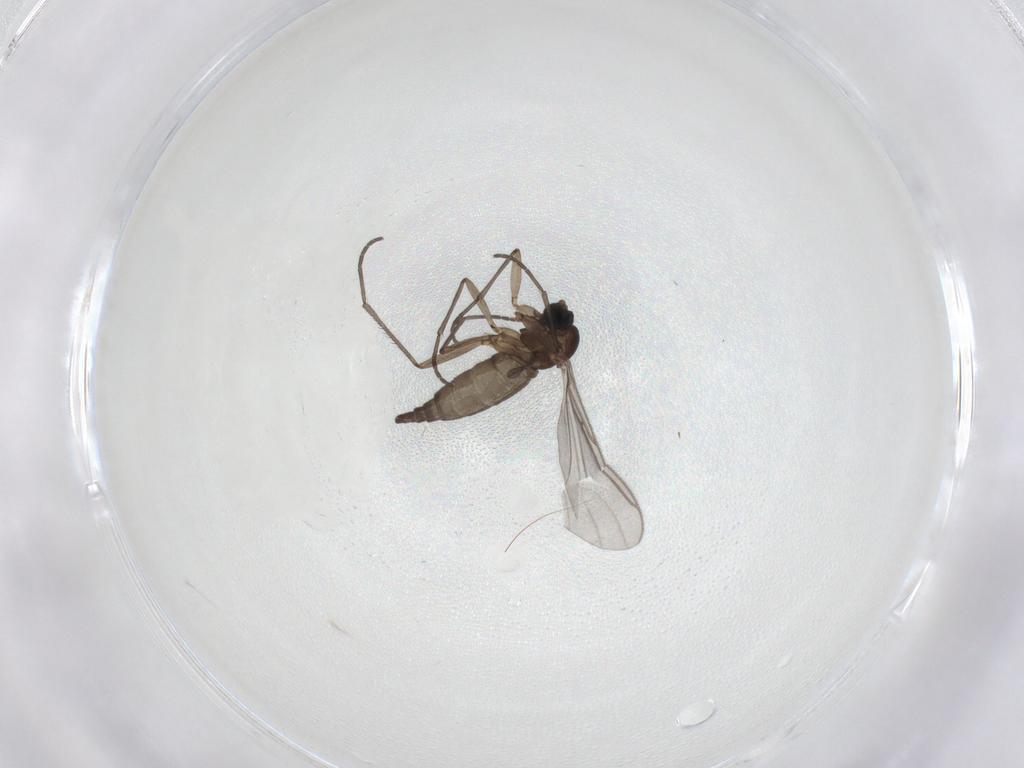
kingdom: Animalia
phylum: Arthropoda
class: Insecta
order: Diptera
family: Sciaridae
